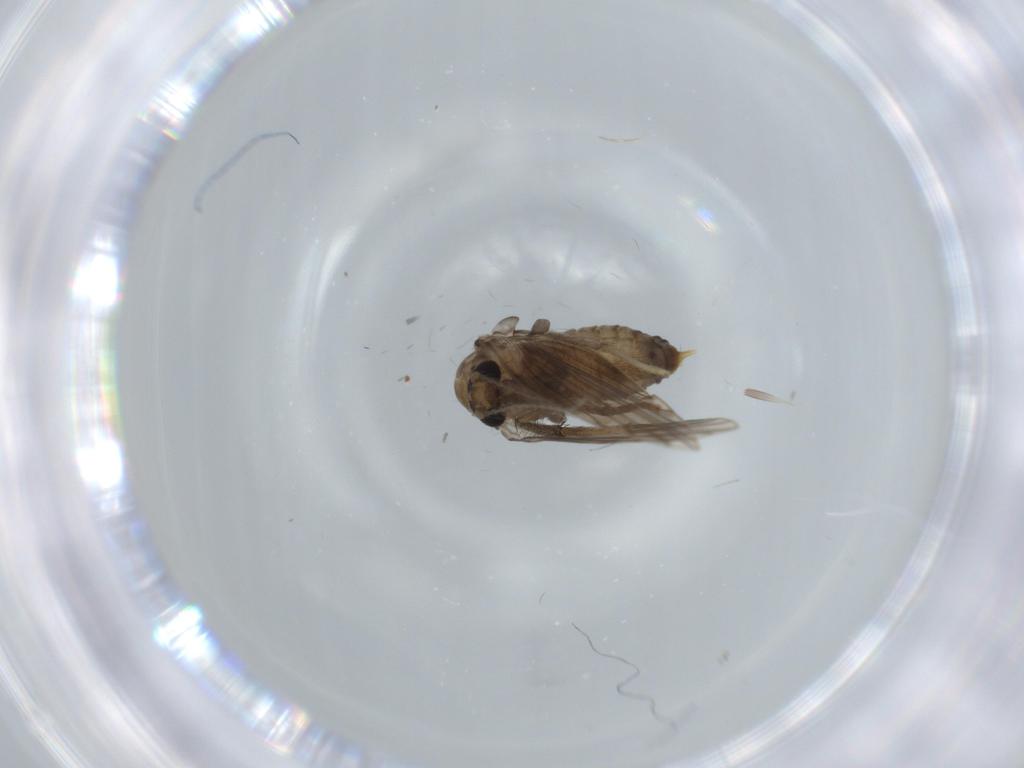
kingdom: Animalia
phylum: Arthropoda
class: Insecta
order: Diptera
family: Psychodidae
